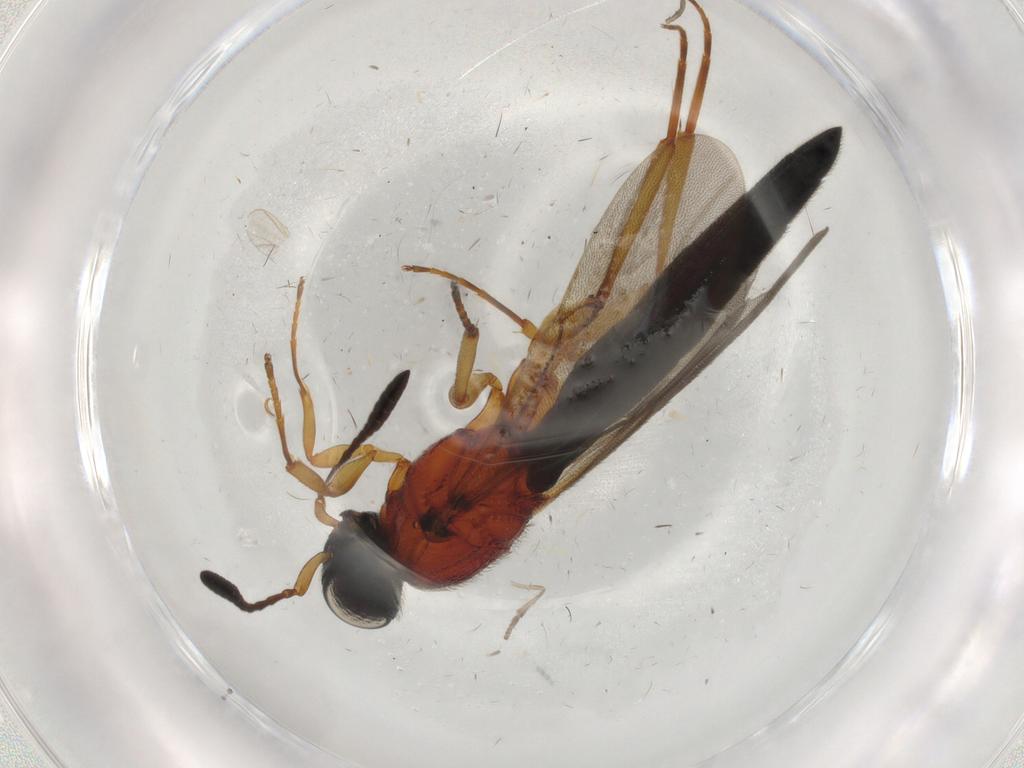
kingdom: Animalia
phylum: Arthropoda
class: Insecta
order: Hymenoptera
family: Scelionidae
